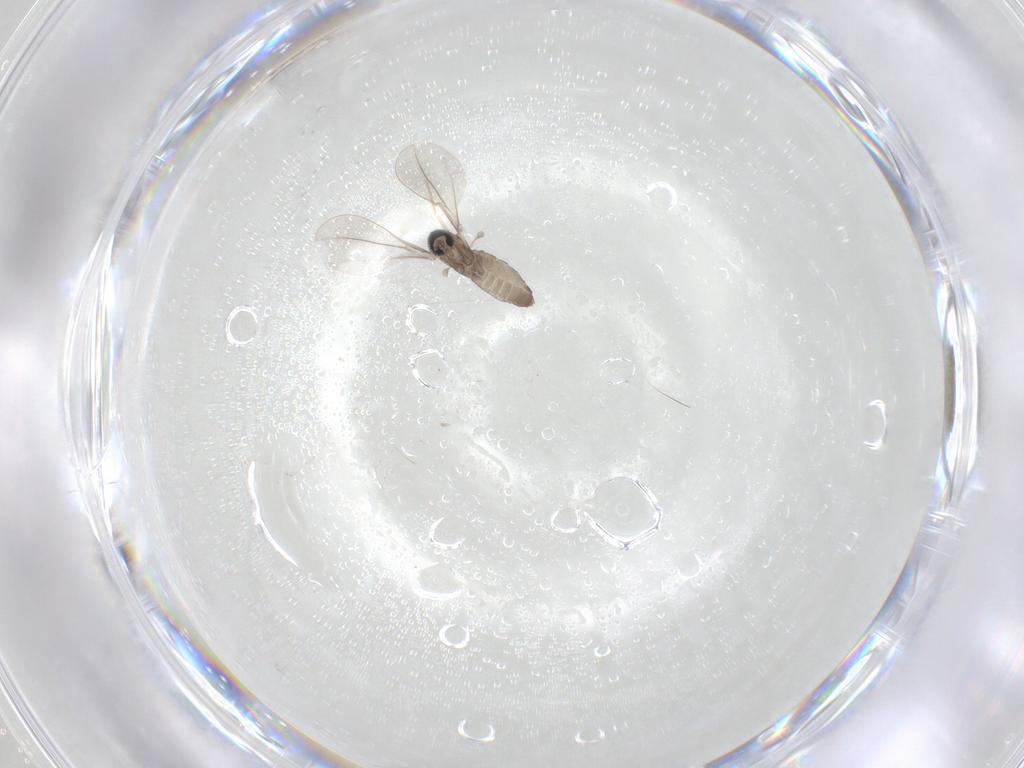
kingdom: Animalia
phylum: Arthropoda
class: Insecta
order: Diptera
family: Cecidomyiidae
